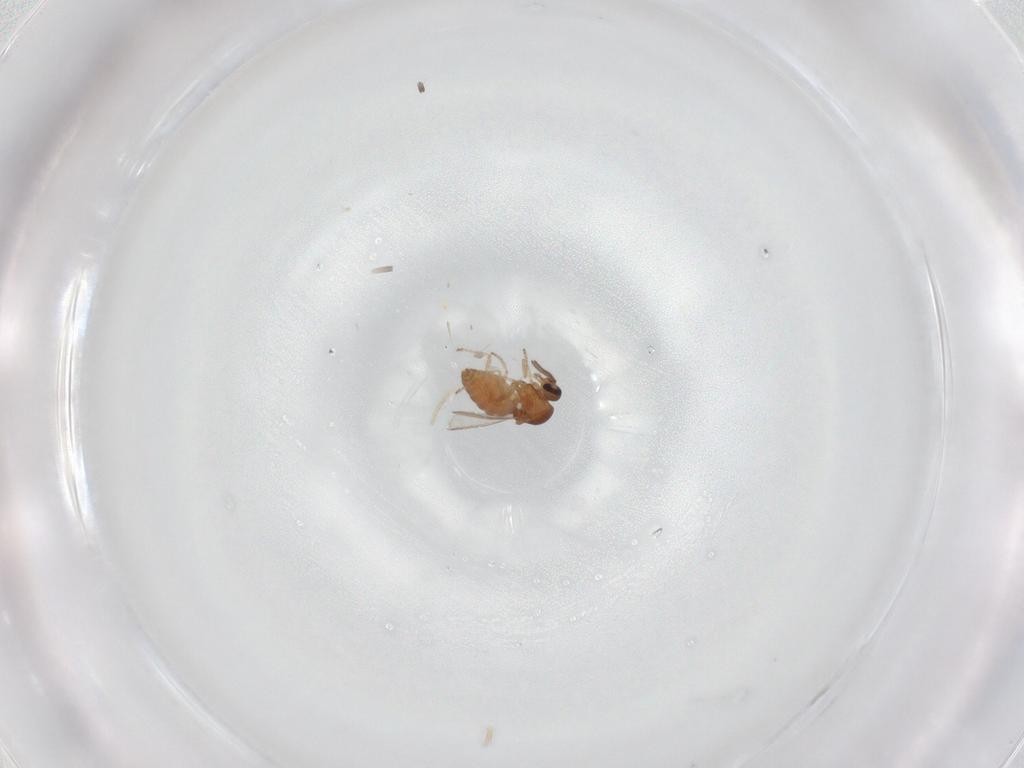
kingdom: Animalia
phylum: Arthropoda
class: Insecta
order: Diptera
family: Ceratopogonidae
